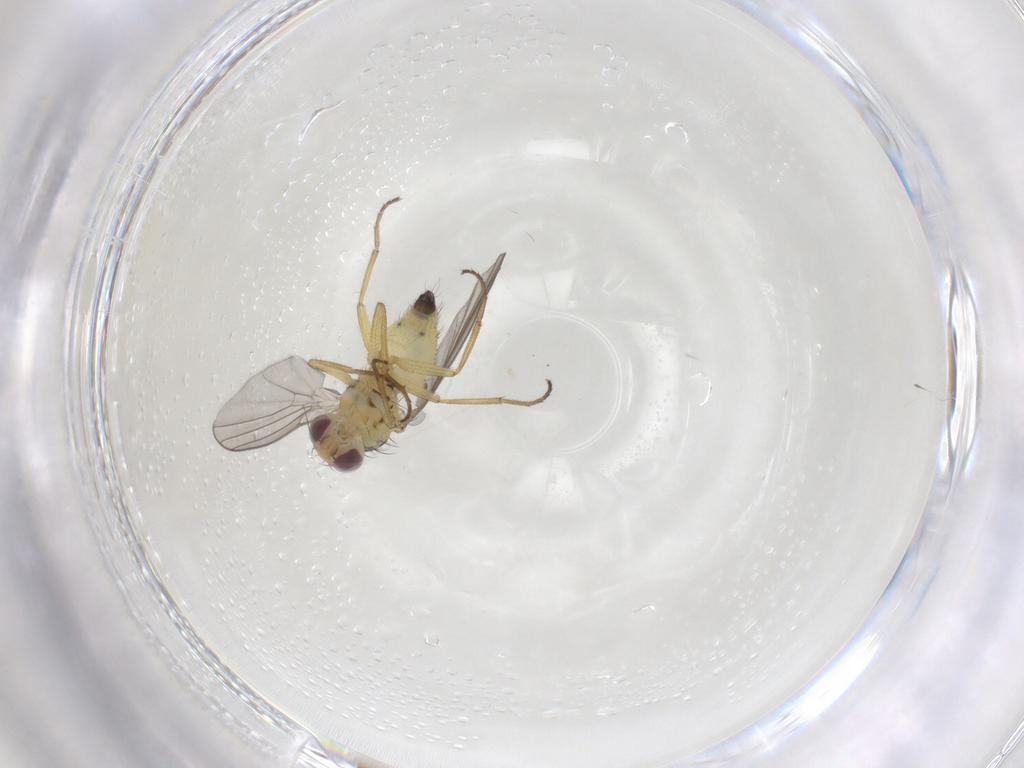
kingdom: Animalia
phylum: Arthropoda
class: Insecta
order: Diptera
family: Agromyzidae
